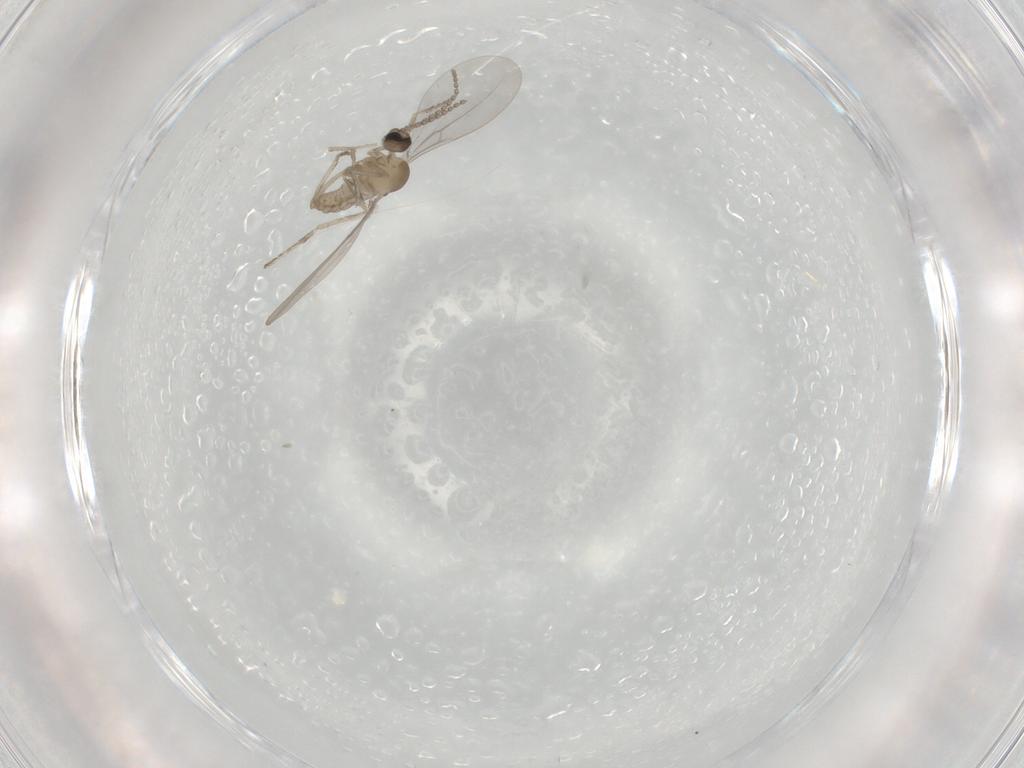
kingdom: Animalia
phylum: Arthropoda
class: Insecta
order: Diptera
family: Cecidomyiidae
